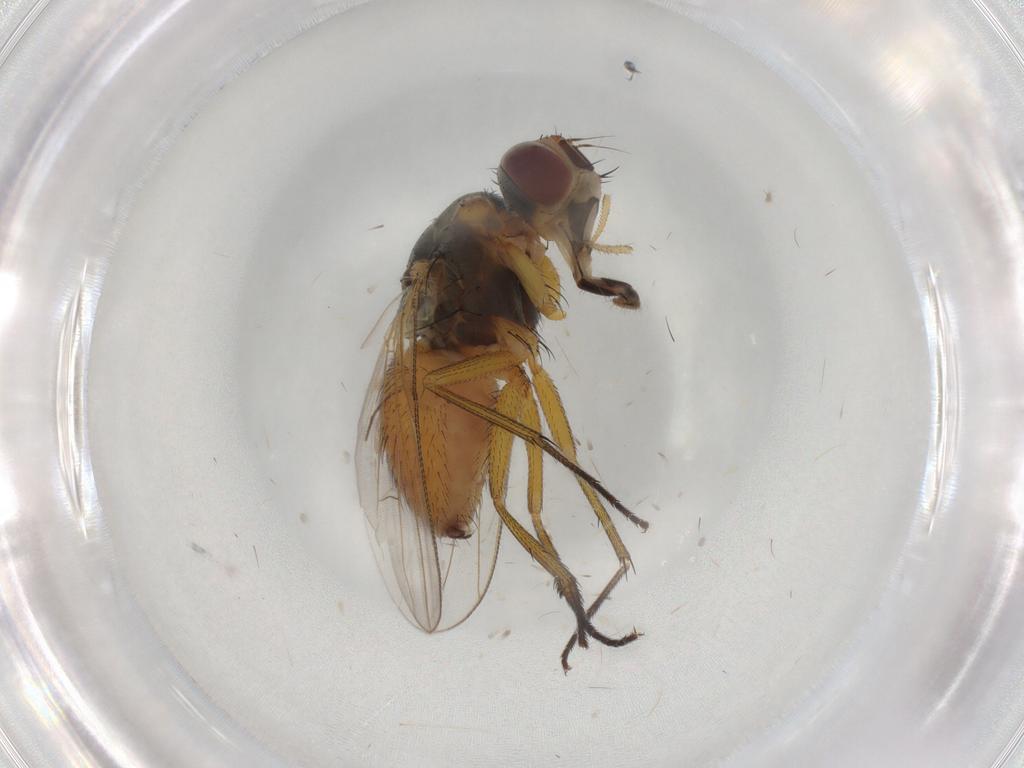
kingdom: Animalia
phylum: Arthropoda
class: Insecta
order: Diptera
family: Muscidae
